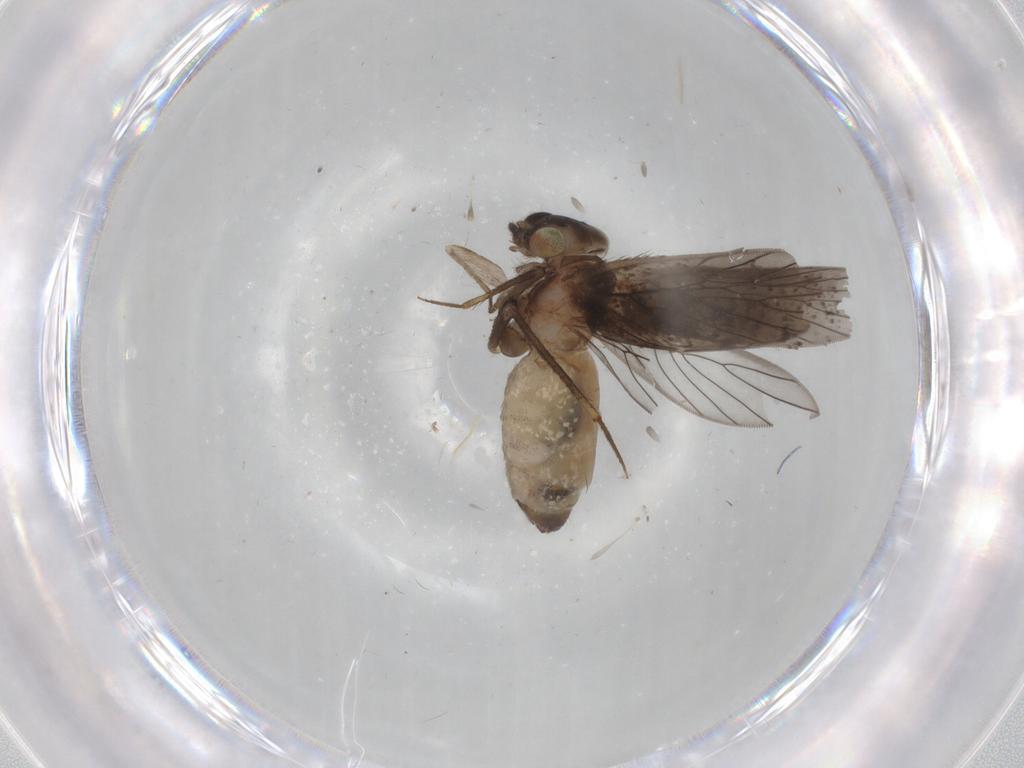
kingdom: Animalia
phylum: Arthropoda
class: Insecta
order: Psocodea
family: Lepidopsocidae
